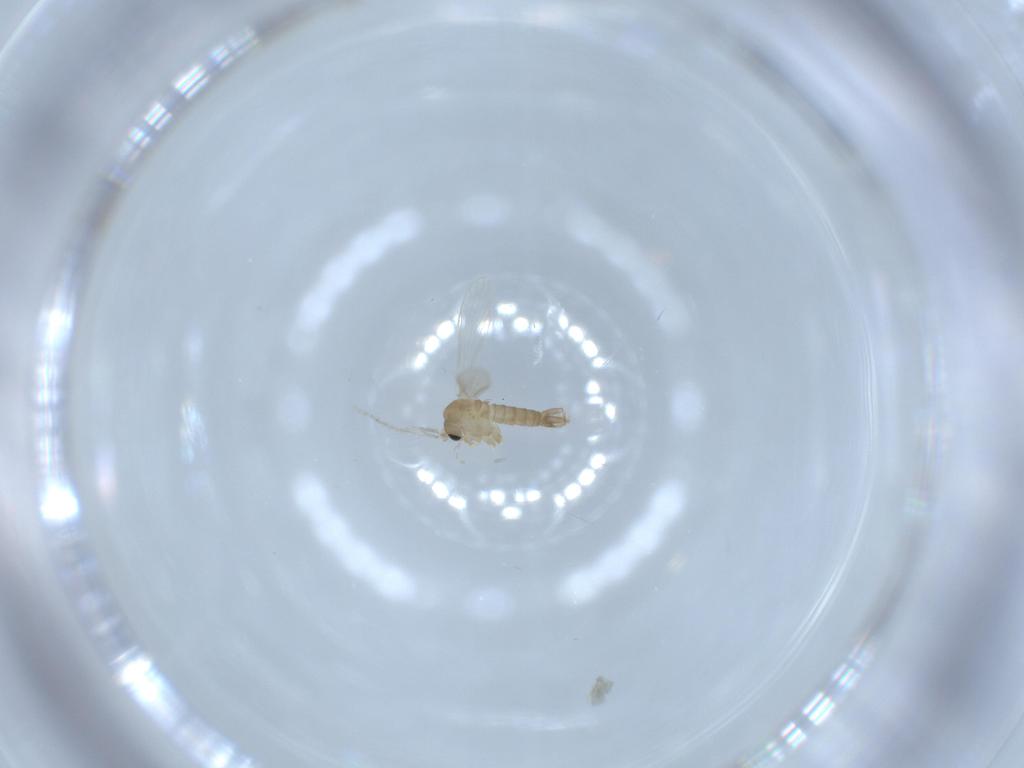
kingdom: Animalia
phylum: Arthropoda
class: Insecta
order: Diptera
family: Psychodidae
